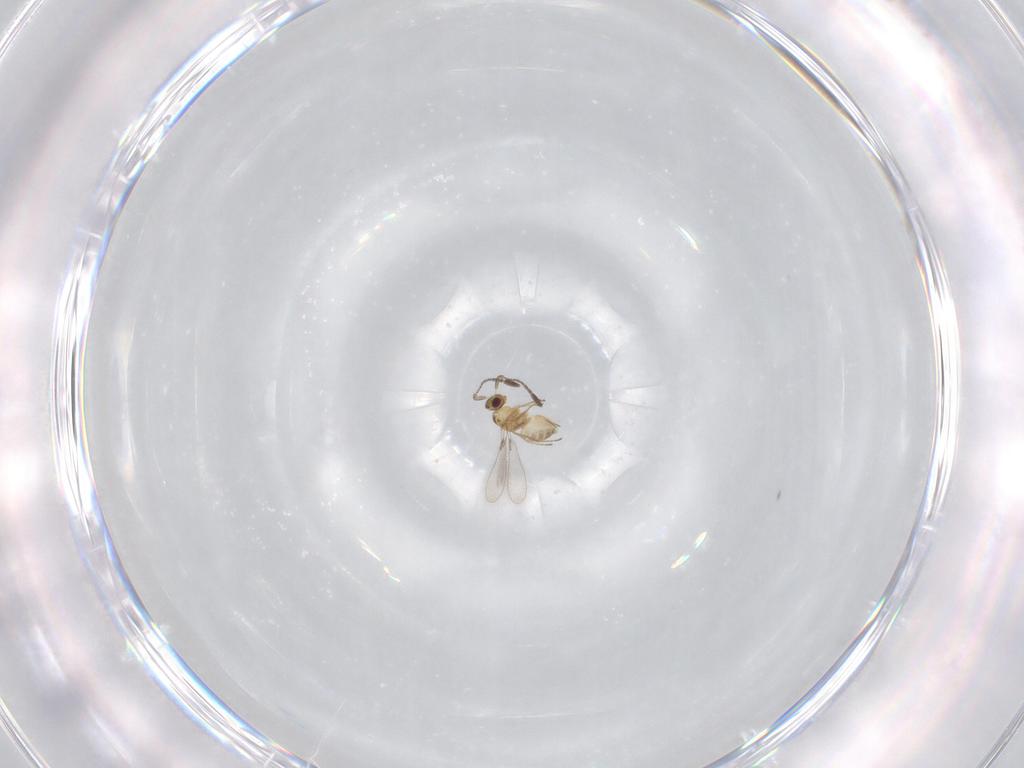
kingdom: Animalia
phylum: Arthropoda
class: Insecta
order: Hymenoptera
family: Mymaridae
